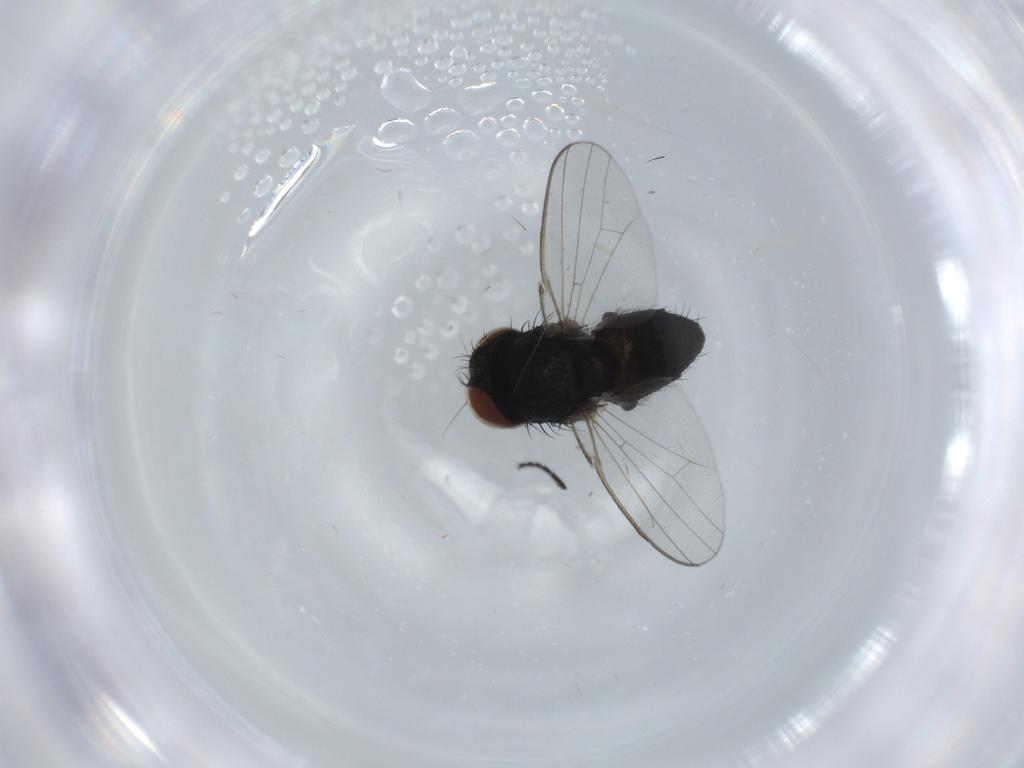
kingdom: Animalia
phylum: Arthropoda
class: Insecta
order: Diptera
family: Milichiidae
